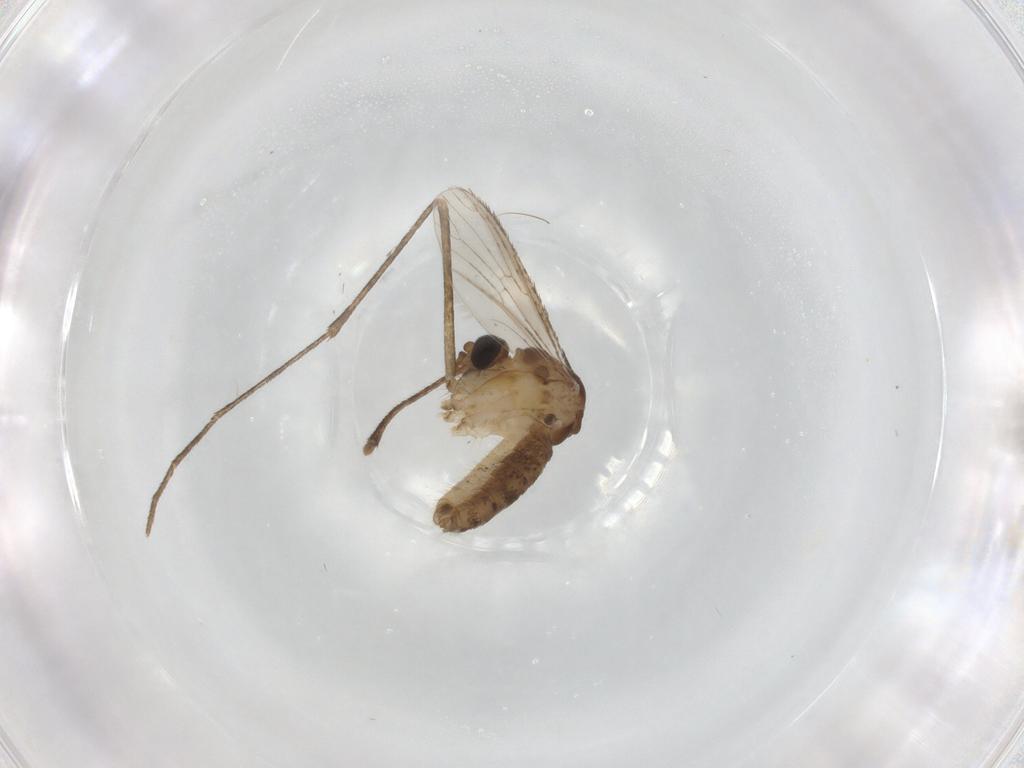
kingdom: Animalia
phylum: Arthropoda
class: Insecta
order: Diptera
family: Culicidae
